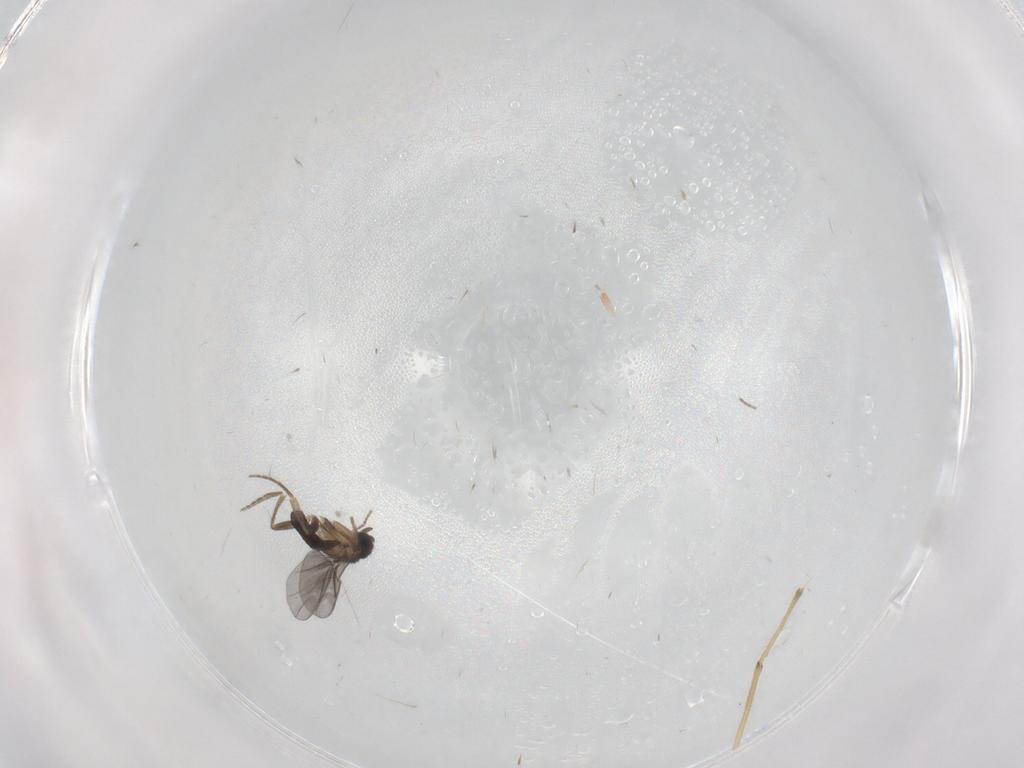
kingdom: Animalia
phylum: Arthropoda
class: Insecta
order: Diptera
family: Chironomidae
